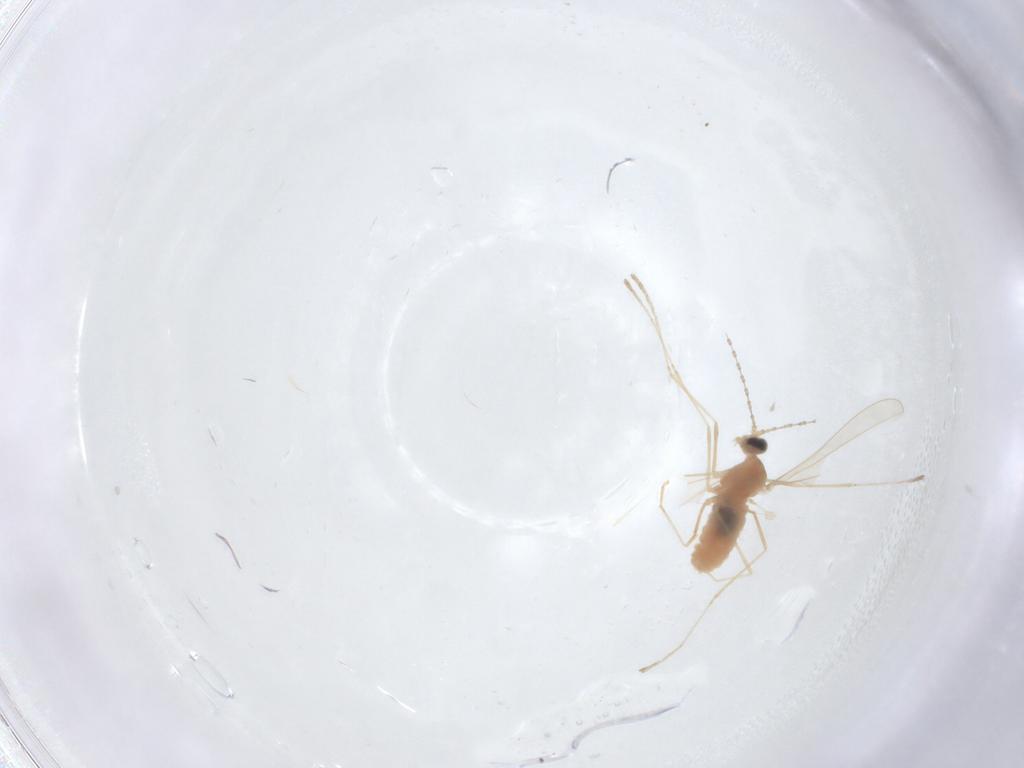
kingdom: Animalia
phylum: Arthropoda
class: Insecta
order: Diptera
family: Cecidomyiidae
